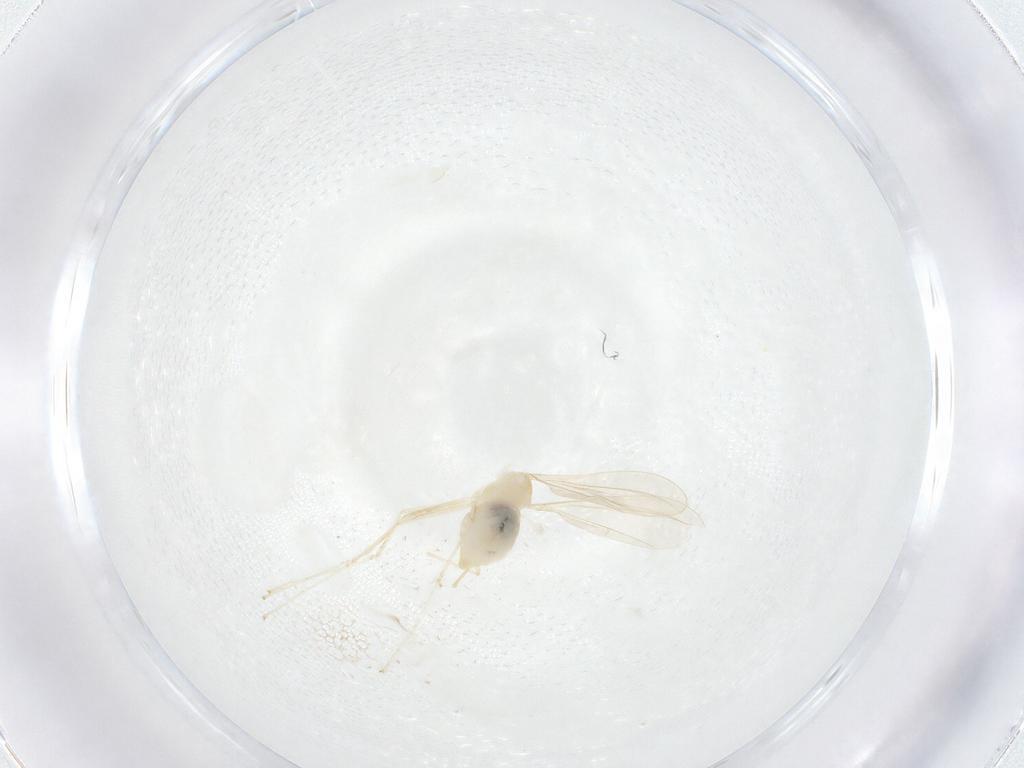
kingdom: Animalia
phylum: Arthropoda
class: Insecta
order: Diptera
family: Cecidomyiidae
